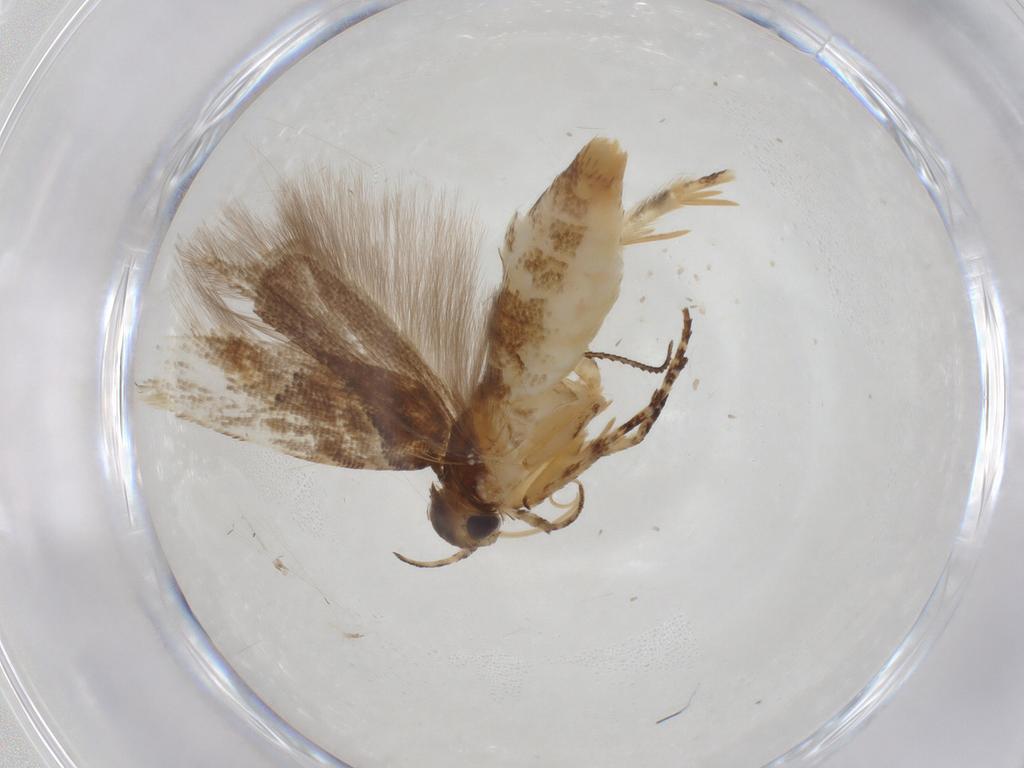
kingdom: Animalia
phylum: Arthropoda
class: Insecta
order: Lepidoptera
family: Gelechiidae
